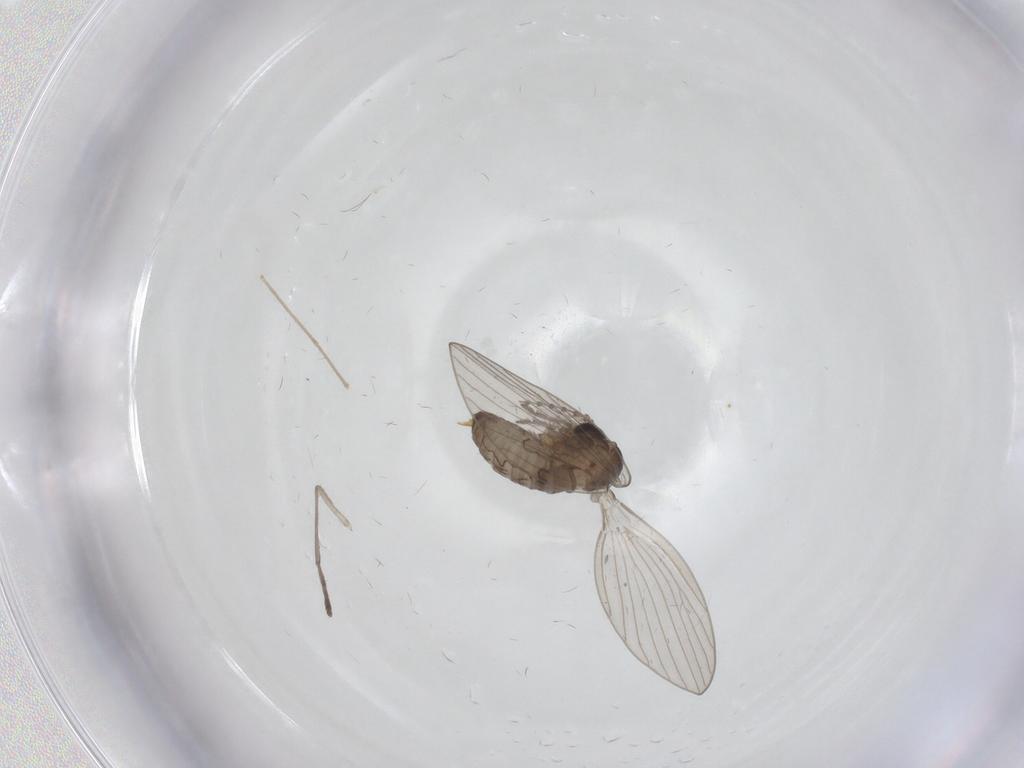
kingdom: Animalia
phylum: Arthropoda
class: Insecta
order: Diptera
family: Psychodidae
